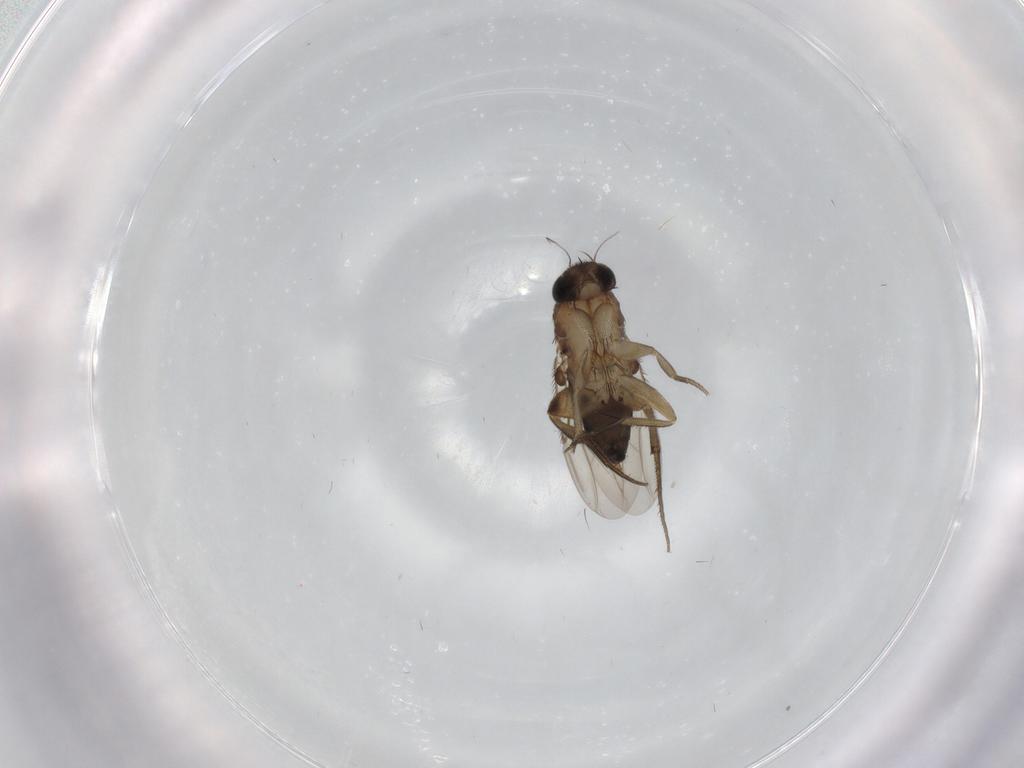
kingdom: Animalia
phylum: Arthropoda
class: Insecta
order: Diptera
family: Phoridae
